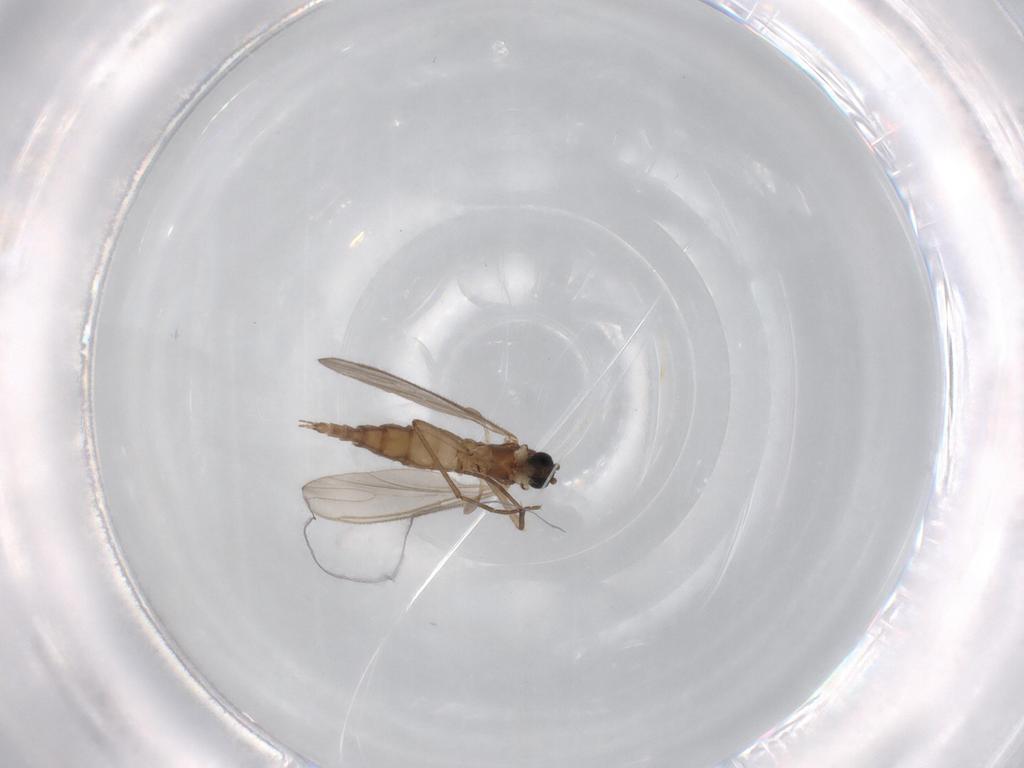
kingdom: Animalia
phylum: Arthropoda
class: Insecta
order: Diptera
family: Cecidomyiidae
